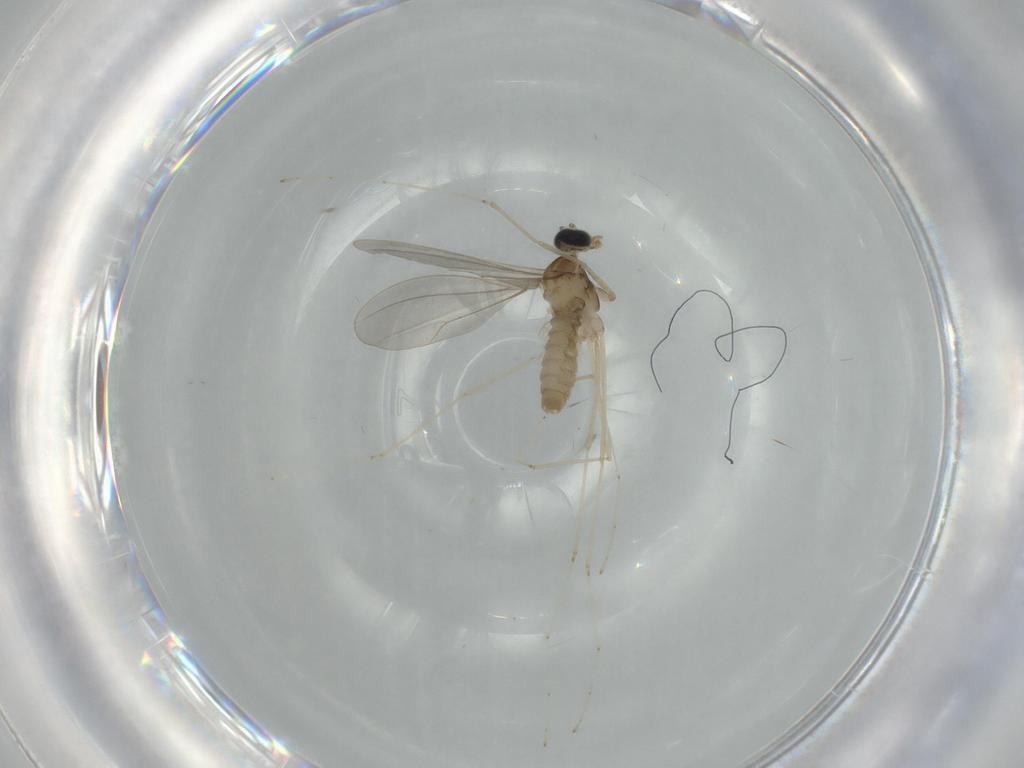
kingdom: Animalia
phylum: Arthropoda
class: Insecta
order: Diptera
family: Cecidomyiidae
